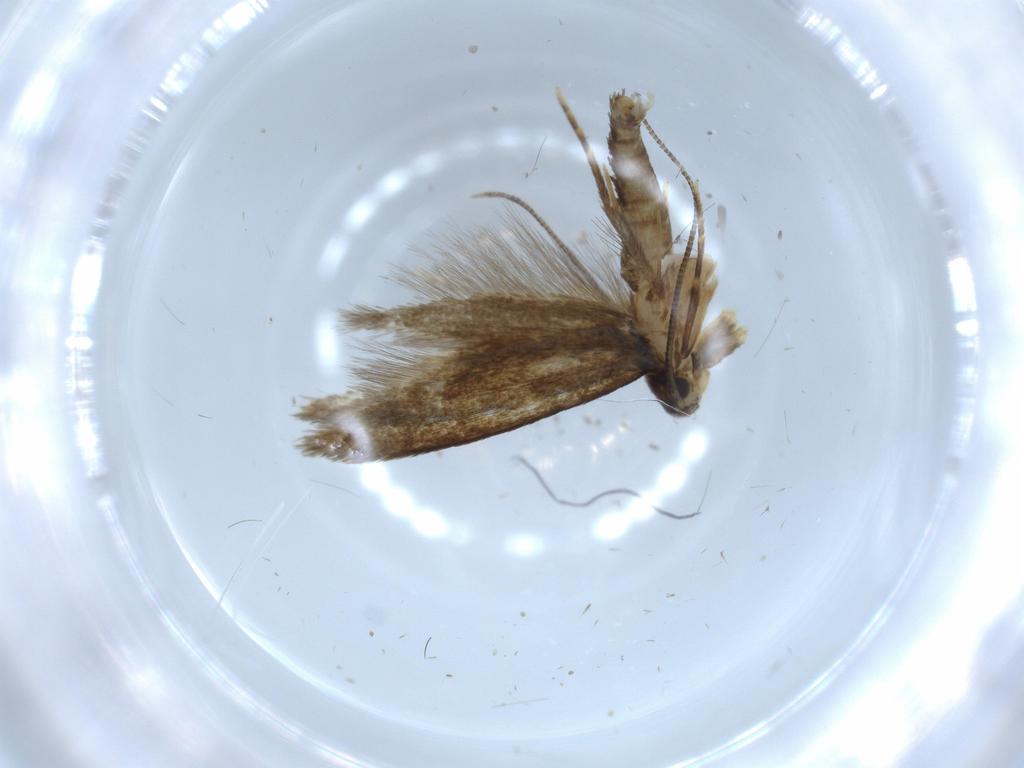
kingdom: Animalia
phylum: Arthropoda
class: Insecta
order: Lepidoptera
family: Tineidae
